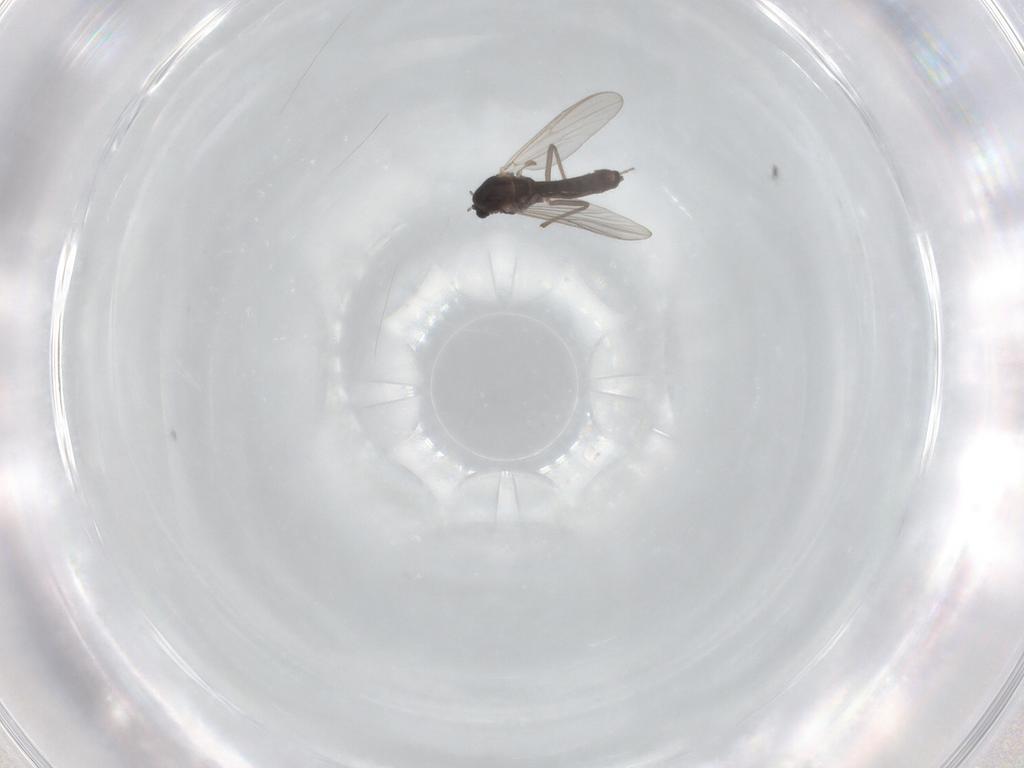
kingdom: Animalia
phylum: Arthropoda
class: Insecta
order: Diptera
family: Chironomidae
